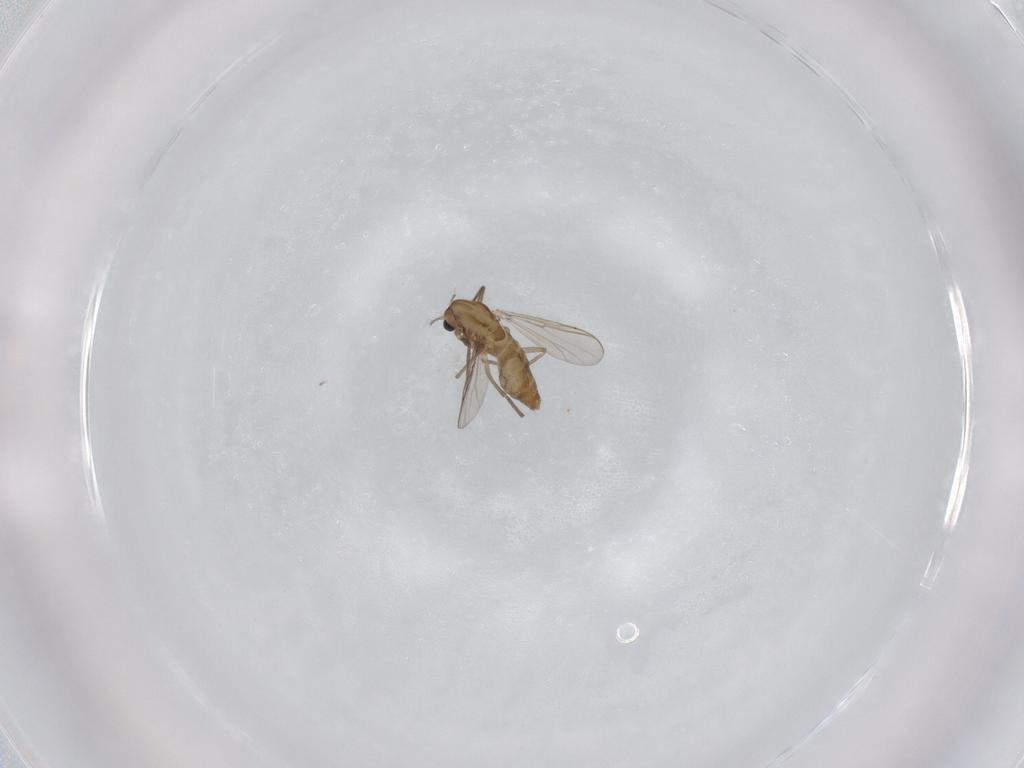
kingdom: Animalia
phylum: Arthropoda
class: Insecta
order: Diptera
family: Chironomidae
